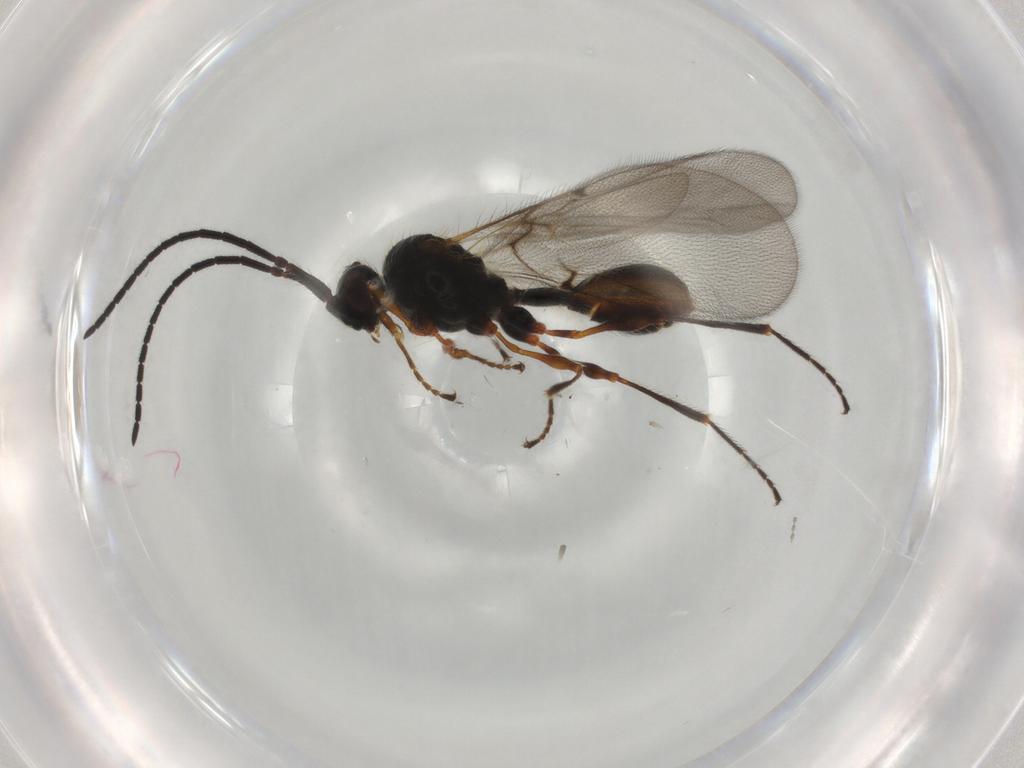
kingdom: Animalia
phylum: Arthropoda
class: Insecta
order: Hymenoptera
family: Diapriidae
